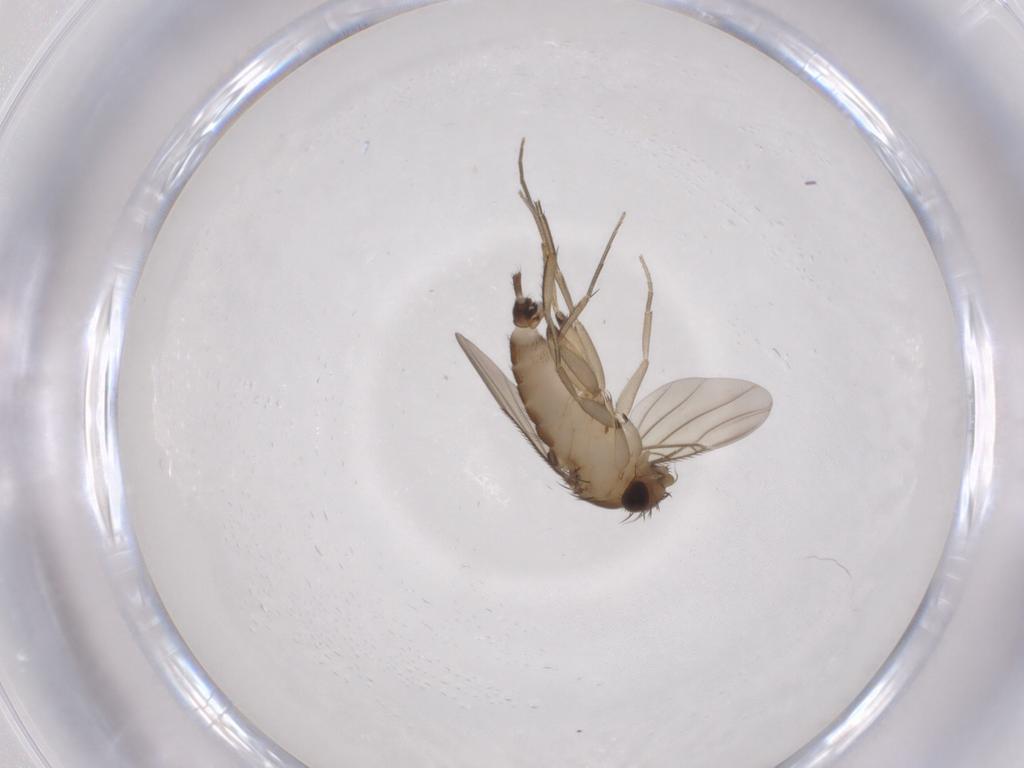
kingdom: Animalia
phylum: Arthropoda
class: Insecta
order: Diptera
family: Phoridae
